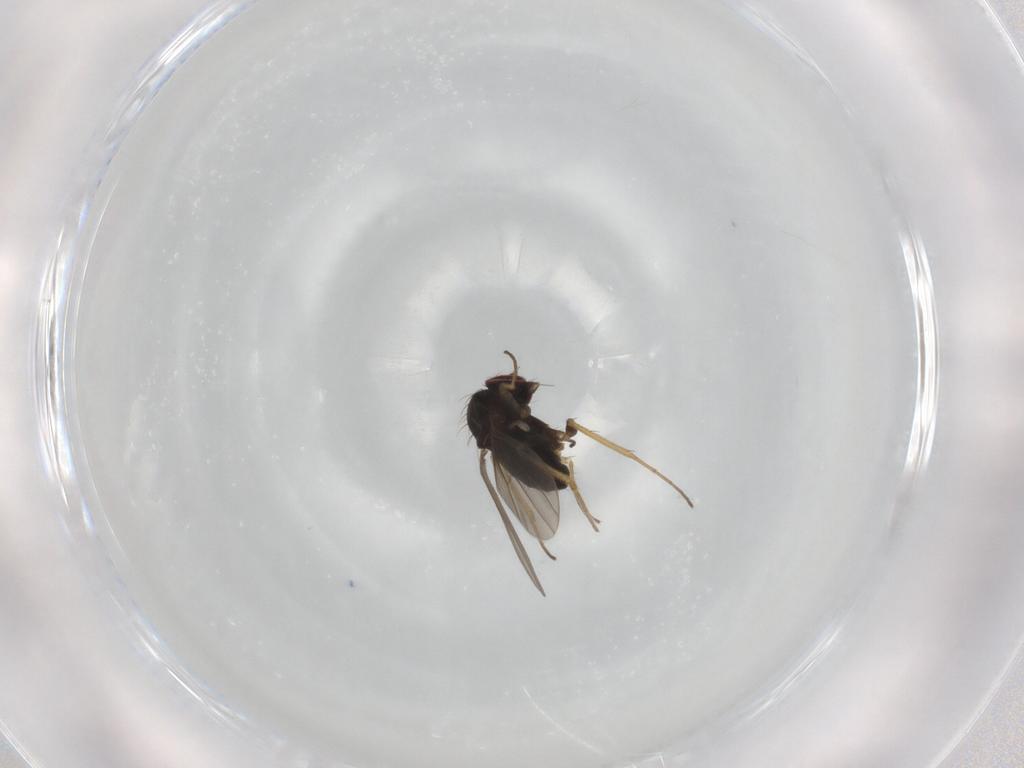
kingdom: Animalia
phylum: Arthropoda
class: Insecta
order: Diptera
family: Dolichopodidae
